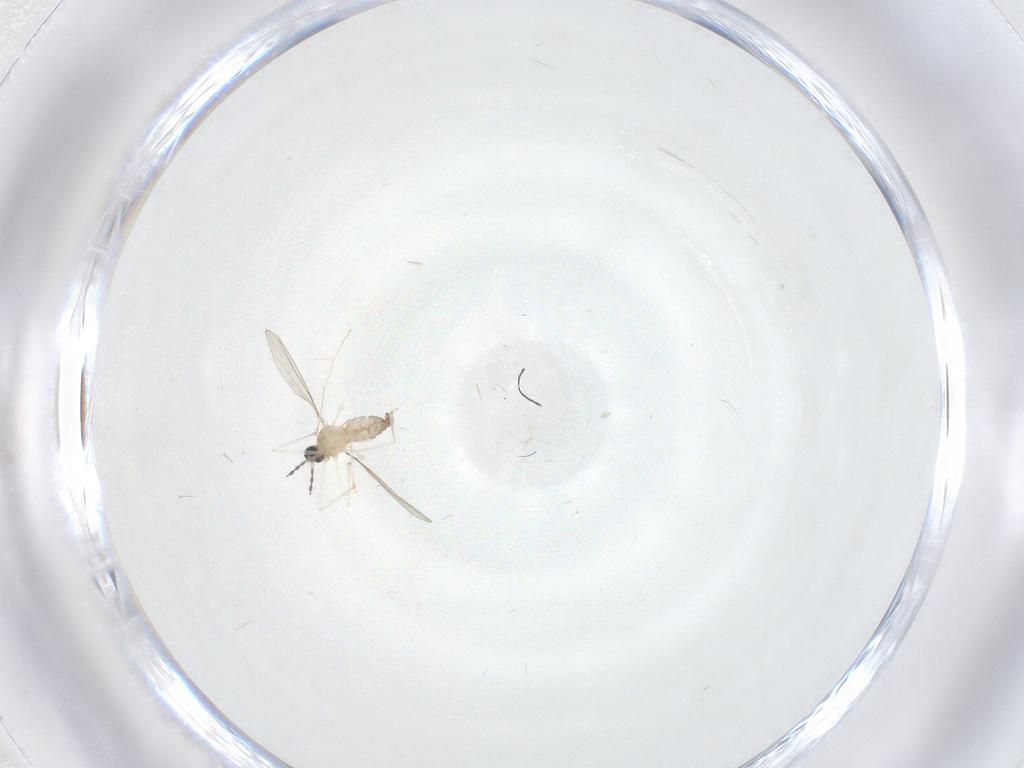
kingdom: Animalia
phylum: Arthropoda
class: Insecta
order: Diptera
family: Cecidomyiidae
